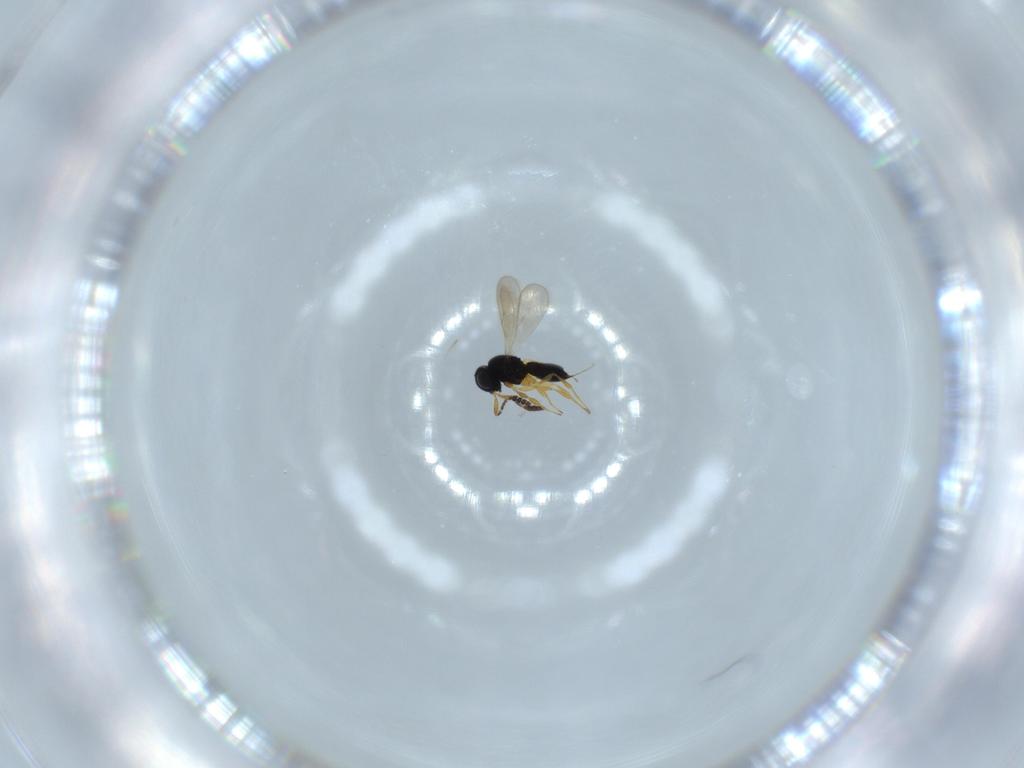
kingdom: Animalia
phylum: Arthropoda
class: Insecta
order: Hymenoptera
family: Scelionidae
